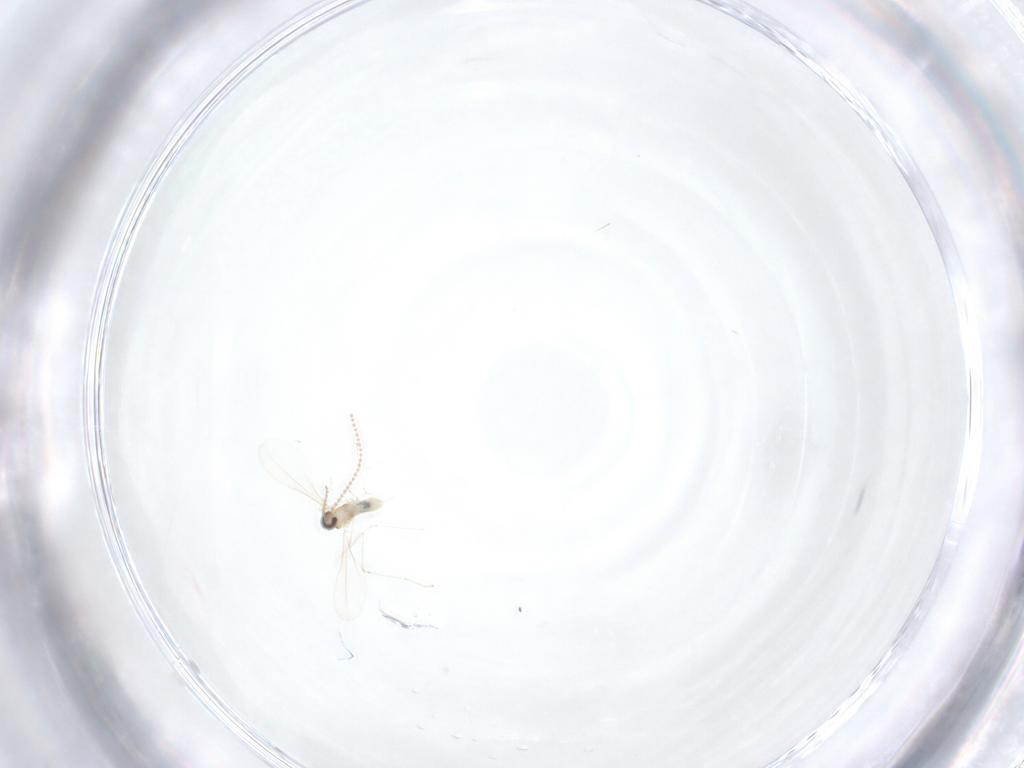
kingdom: Animalia
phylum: Arthropoda
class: Insecta
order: Diptera
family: Cecidomyiidae
